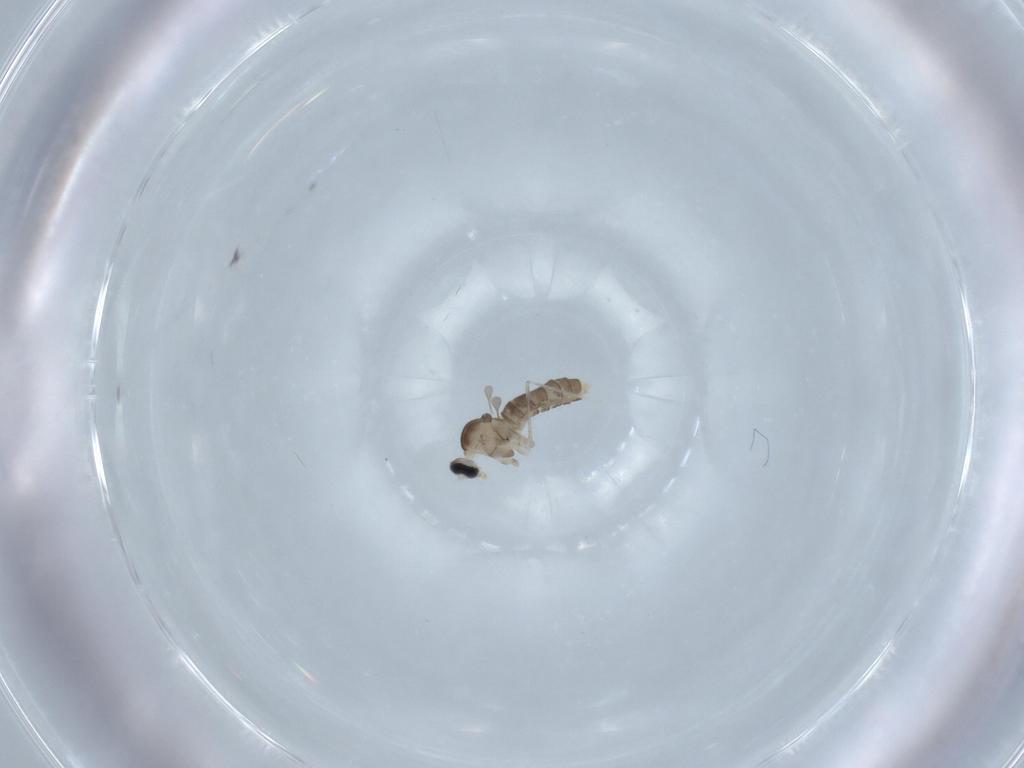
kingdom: Animalia
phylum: Arthropoda
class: Insecta
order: Diptera
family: Cecidomyiidae
